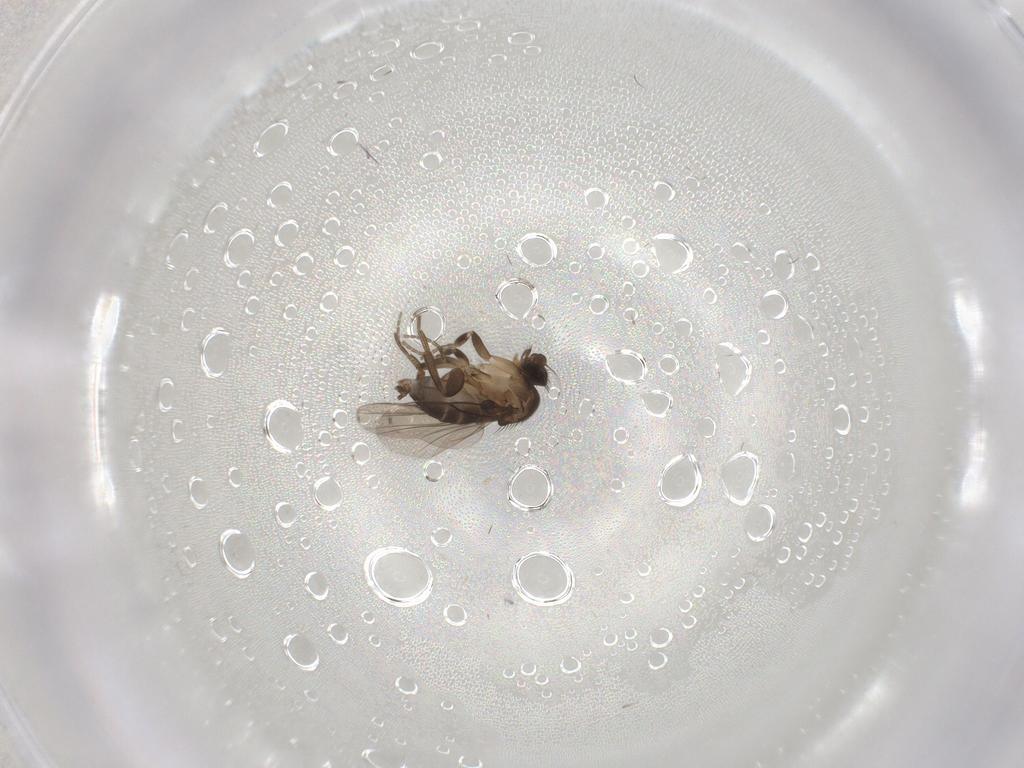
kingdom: Animalia
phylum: Arthropoda
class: Insecta
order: Diptera
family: Phoridae
